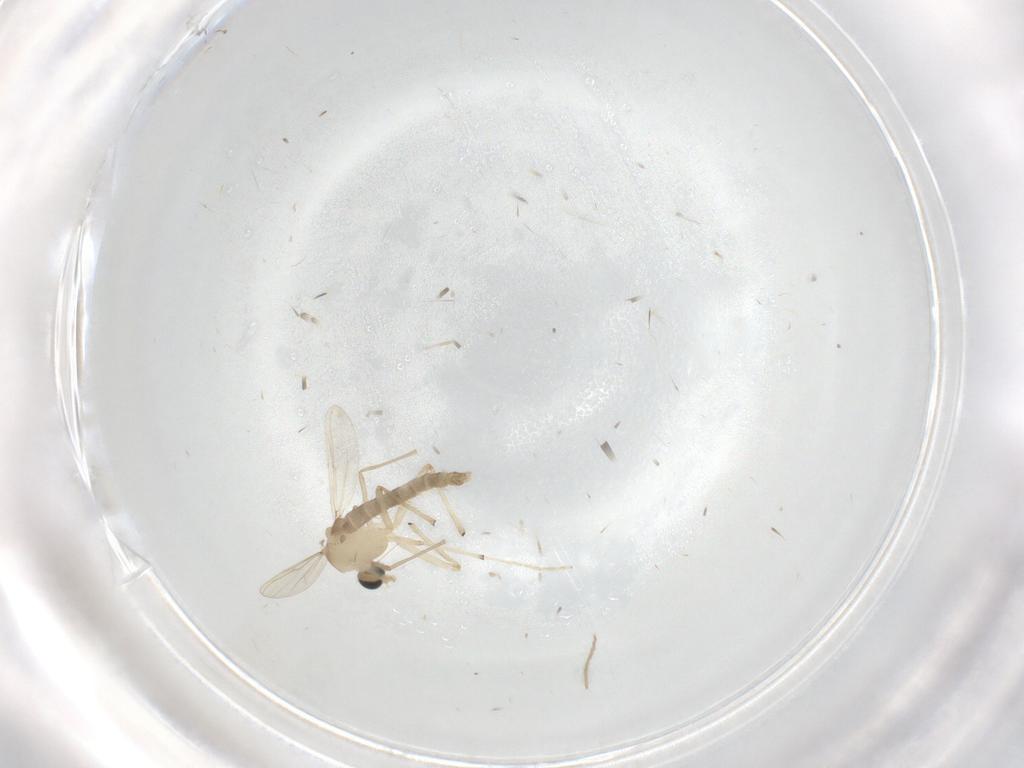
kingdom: Animalia
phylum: Arthropoda
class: Insecta
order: Diptera
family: Chironomidae
